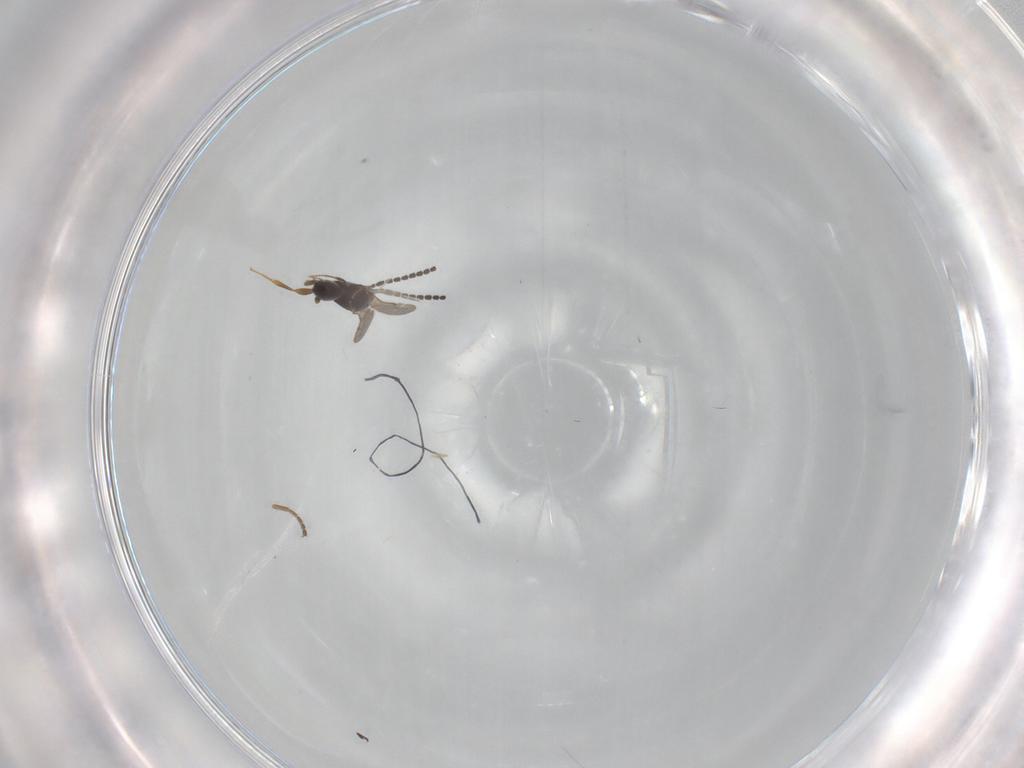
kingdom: Animalia
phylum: Arthropoda
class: Insecta
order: Hymenoptera
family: Ceraphronidae
